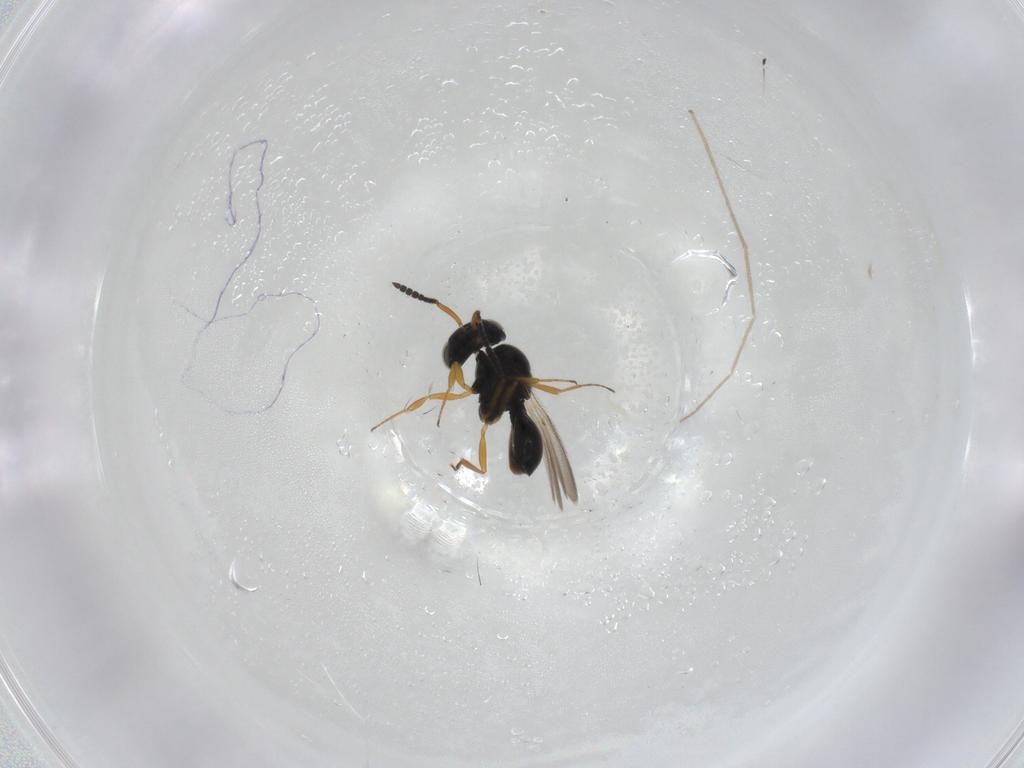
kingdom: Animalia
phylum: Arthropoda
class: Insecta
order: Hymenoptera
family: Scelionidae
